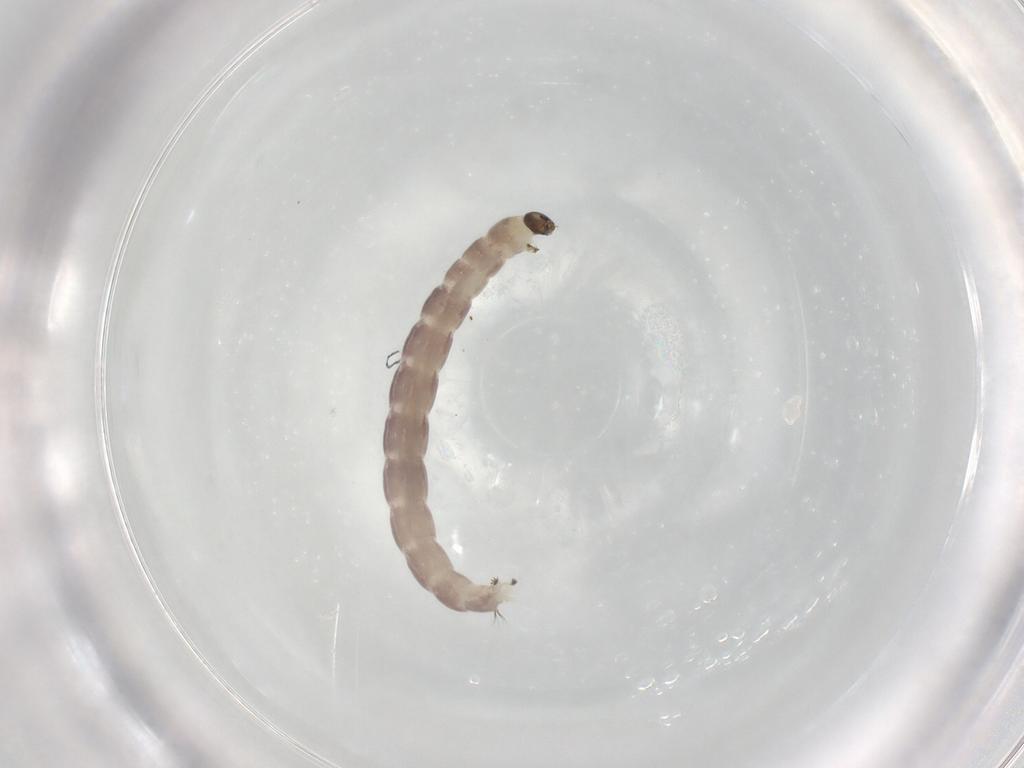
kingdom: Animalia
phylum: Arthropoda
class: Insecta
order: Diptera
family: Chironomidae
